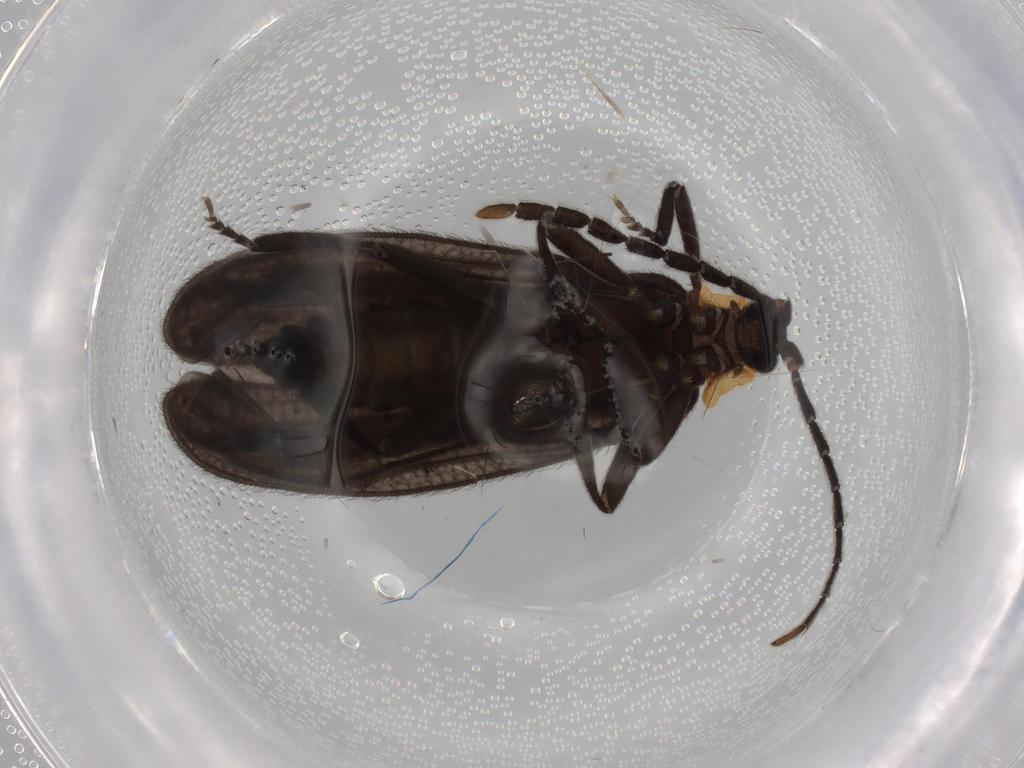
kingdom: Animalia
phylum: Arthropoda
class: Insecta
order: Coleoptera
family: Lycidae
